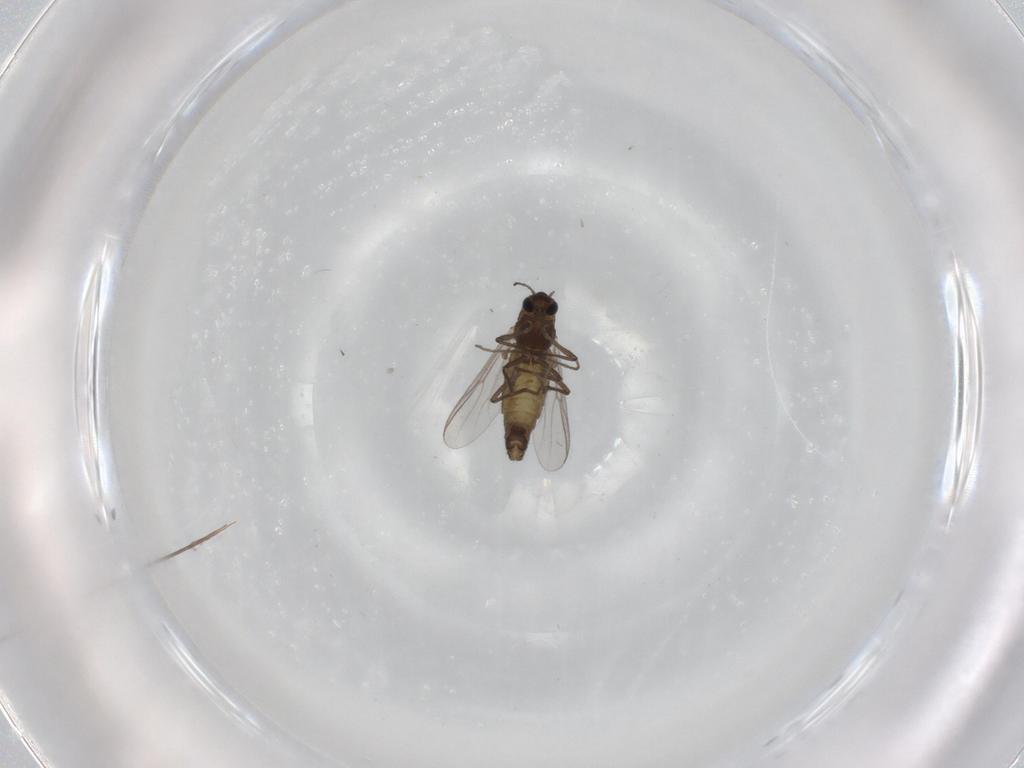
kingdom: Animalia
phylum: Arthropoda
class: Insecta
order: Diptera
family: Chironomidae
